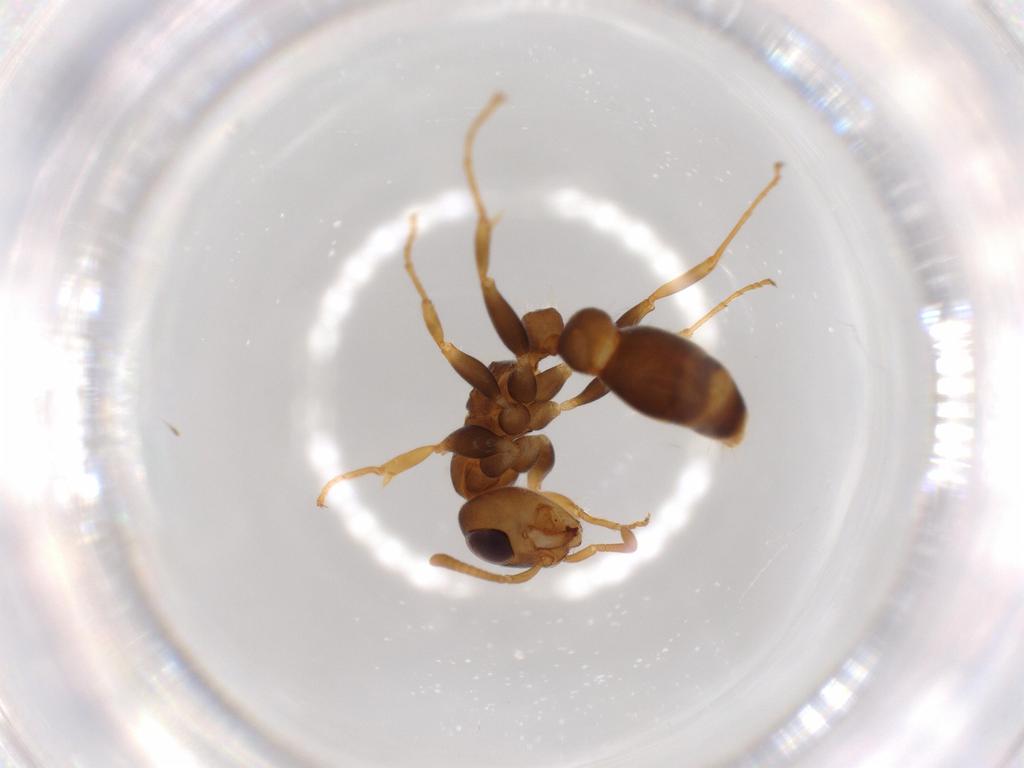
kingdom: Animalia
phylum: Arthropoda
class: Insecta
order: Hymenoptera
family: Formicidae
